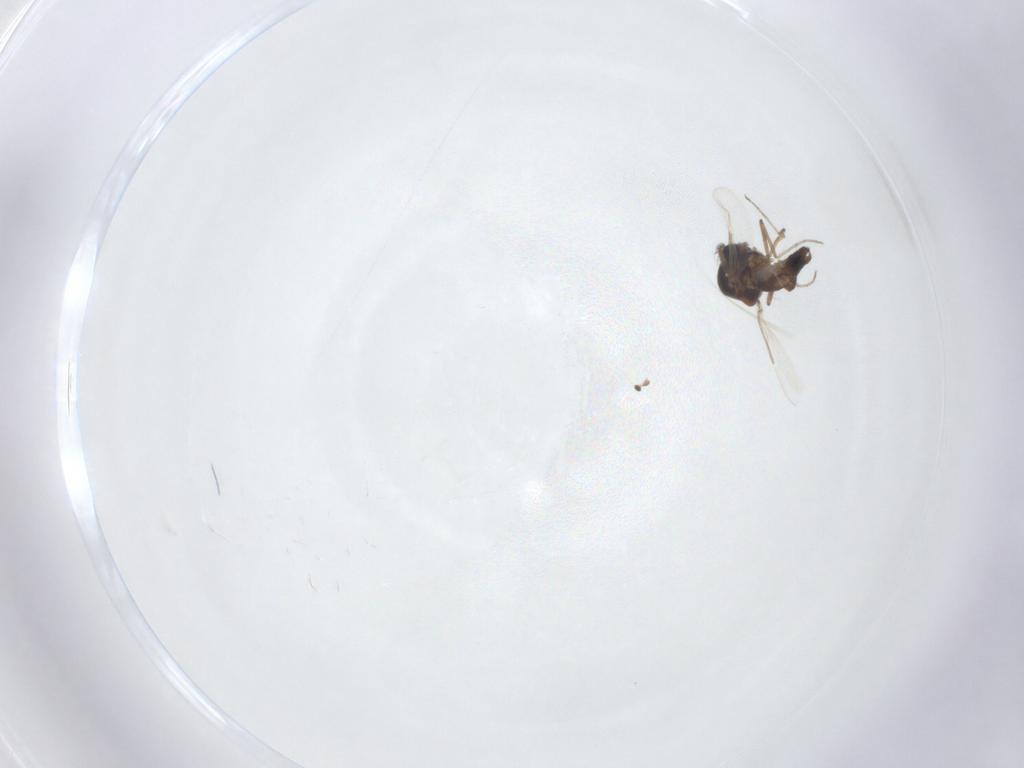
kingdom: Animalia
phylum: Arthropoda
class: Insecta
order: Diptera
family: Ceratopogonidae
